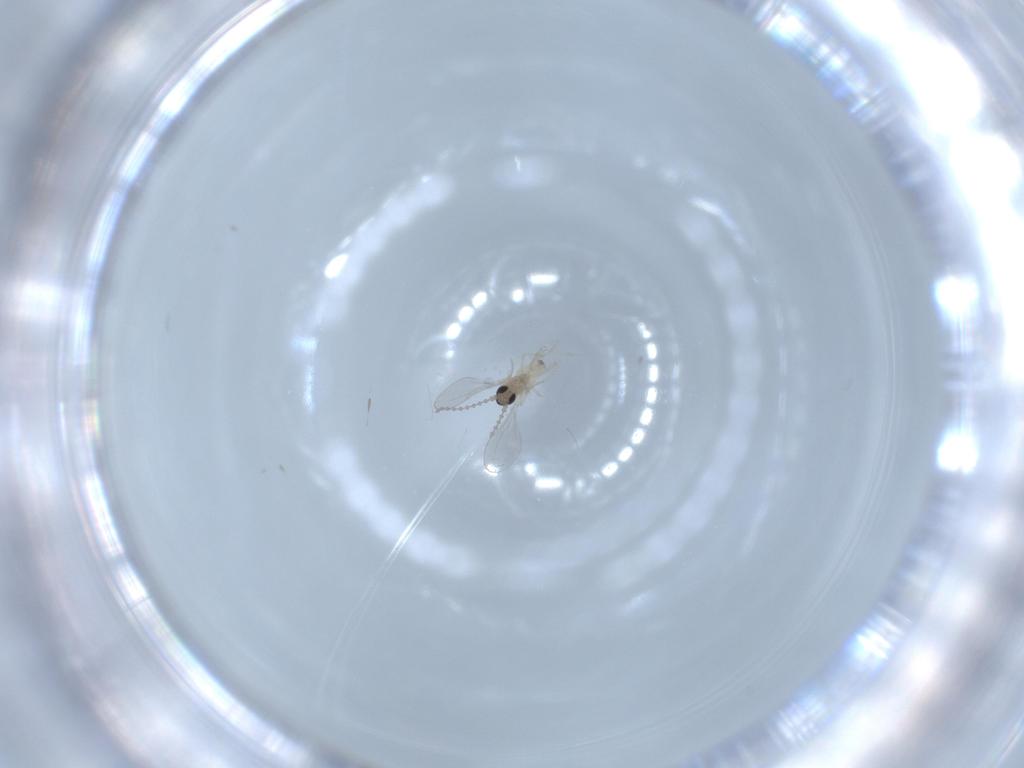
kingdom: Animalia
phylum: Arthropoda
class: Insecta
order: Diptera
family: Cecidomyiidae
